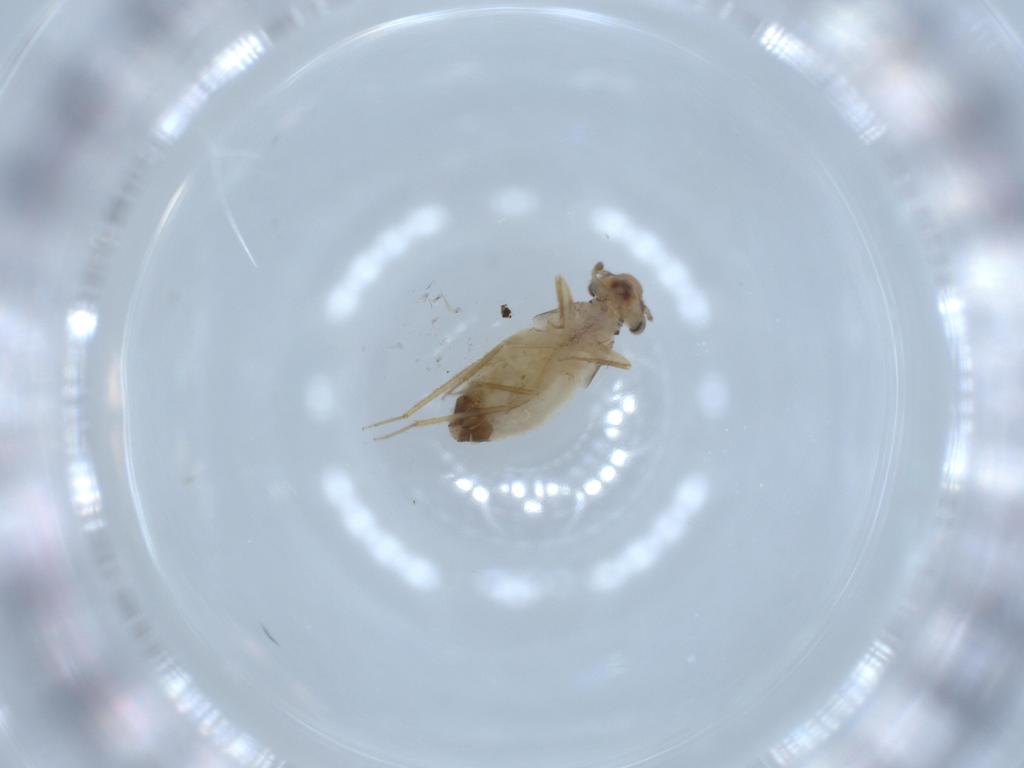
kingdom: Animalia
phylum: Arthropoda
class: Insecta
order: Psocodea
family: Lepidopsocidae
